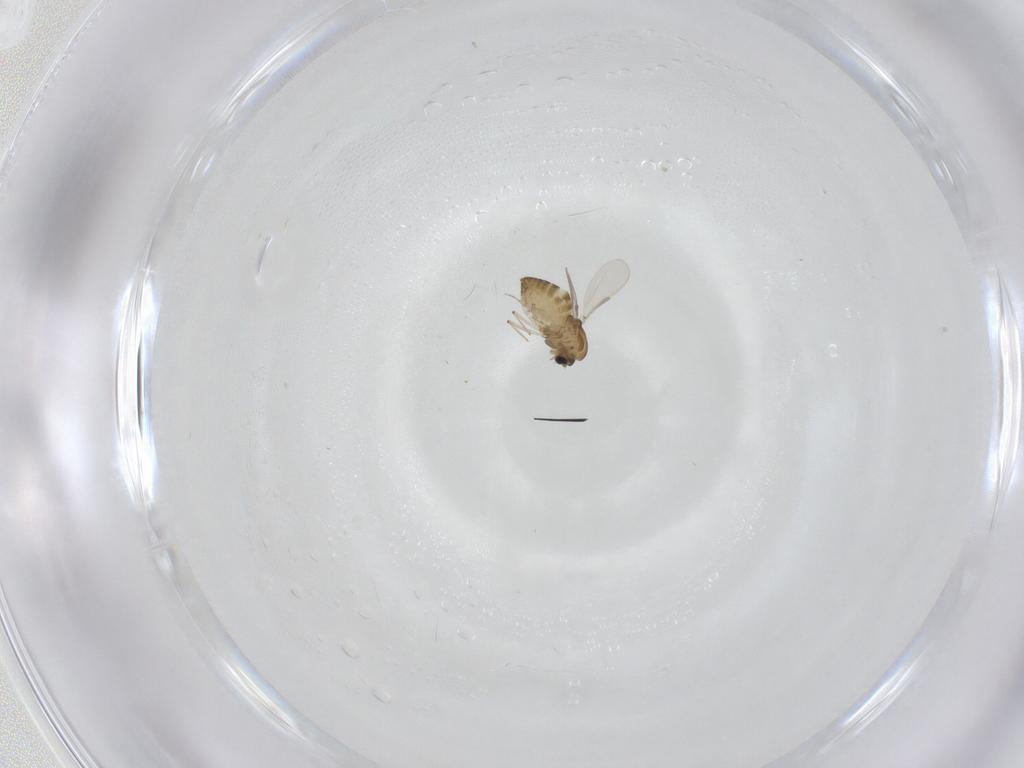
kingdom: Animalia
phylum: Arthropoda
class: Insecta
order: Diptera
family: Chironomidae
